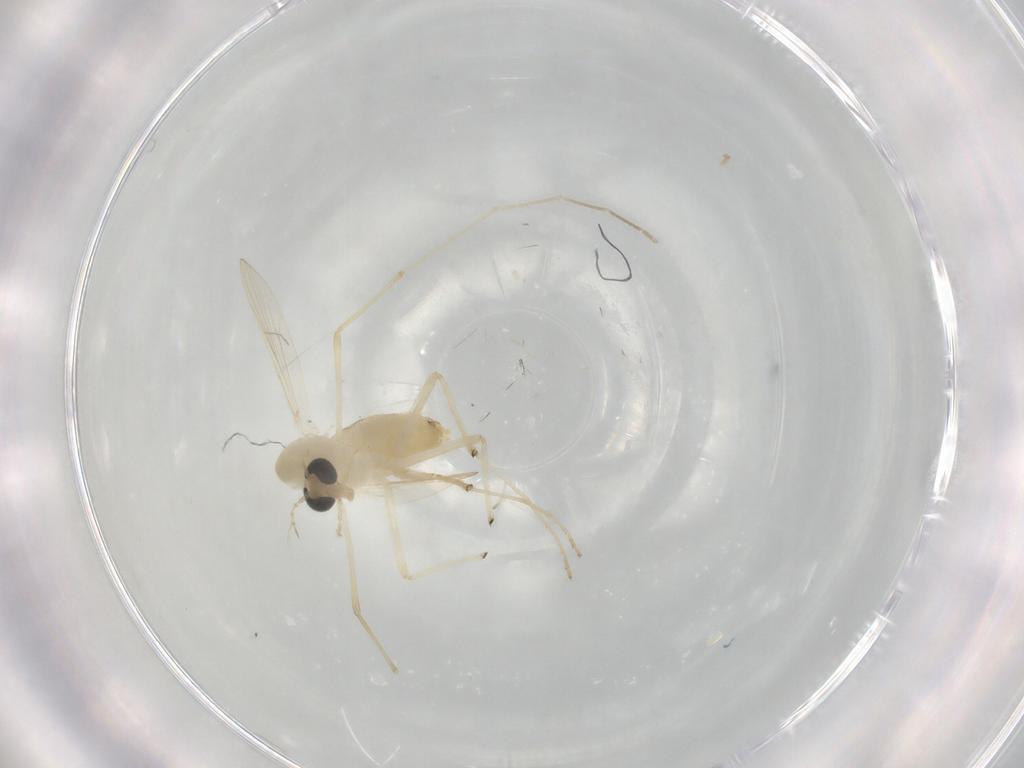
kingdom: Animalia
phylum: Arthropoda
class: Insecta
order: Diptera
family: Chironomidae
